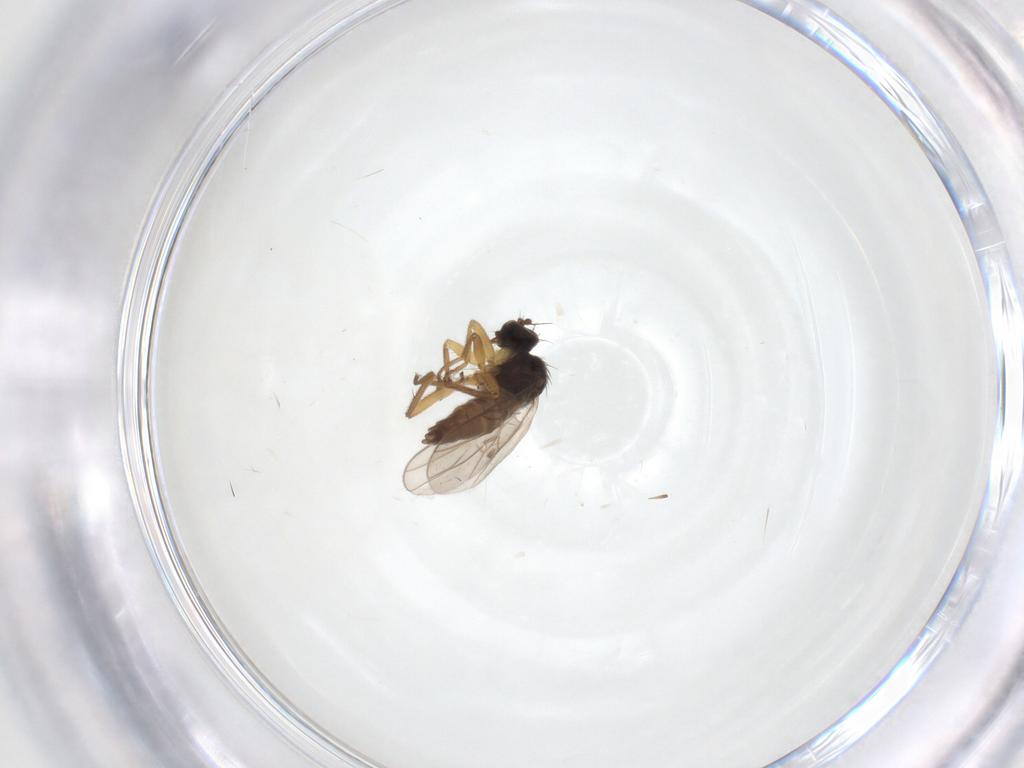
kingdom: Animalia
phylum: Arthropoda
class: Insecta
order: Diptera
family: Hybotidae
